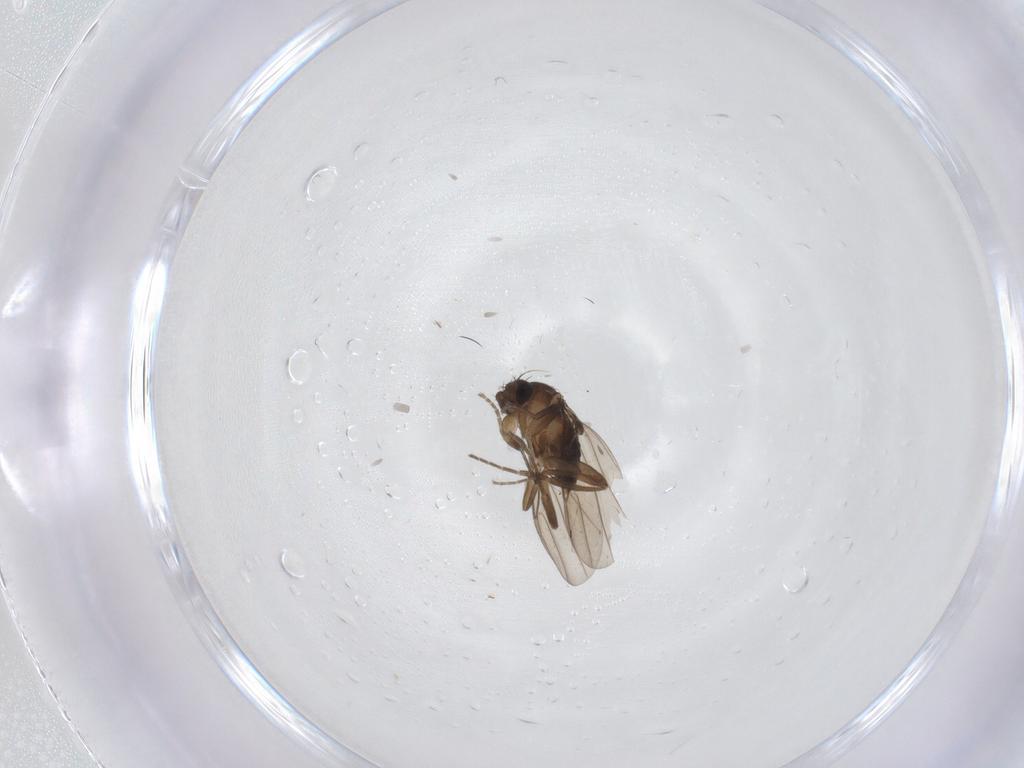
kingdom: Animalia
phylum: Arthropoda
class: Insecta
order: Diptera
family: Phoridae
